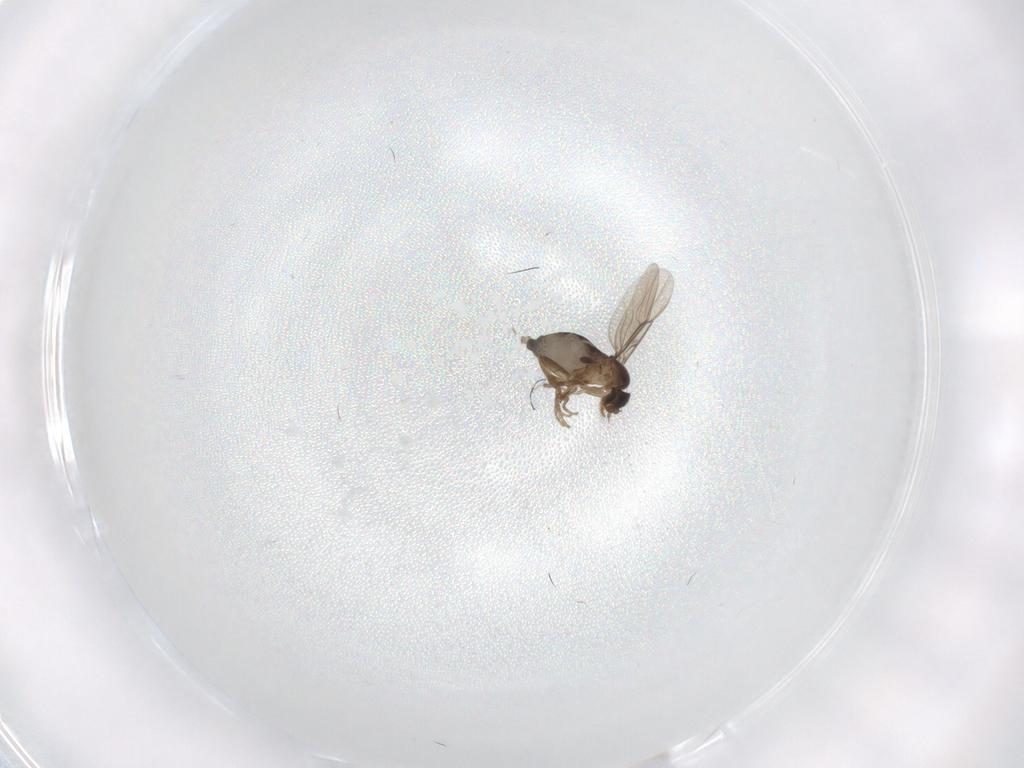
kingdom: Animalia
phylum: Arthropoda
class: Insecta
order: Diptera
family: Phoridae
